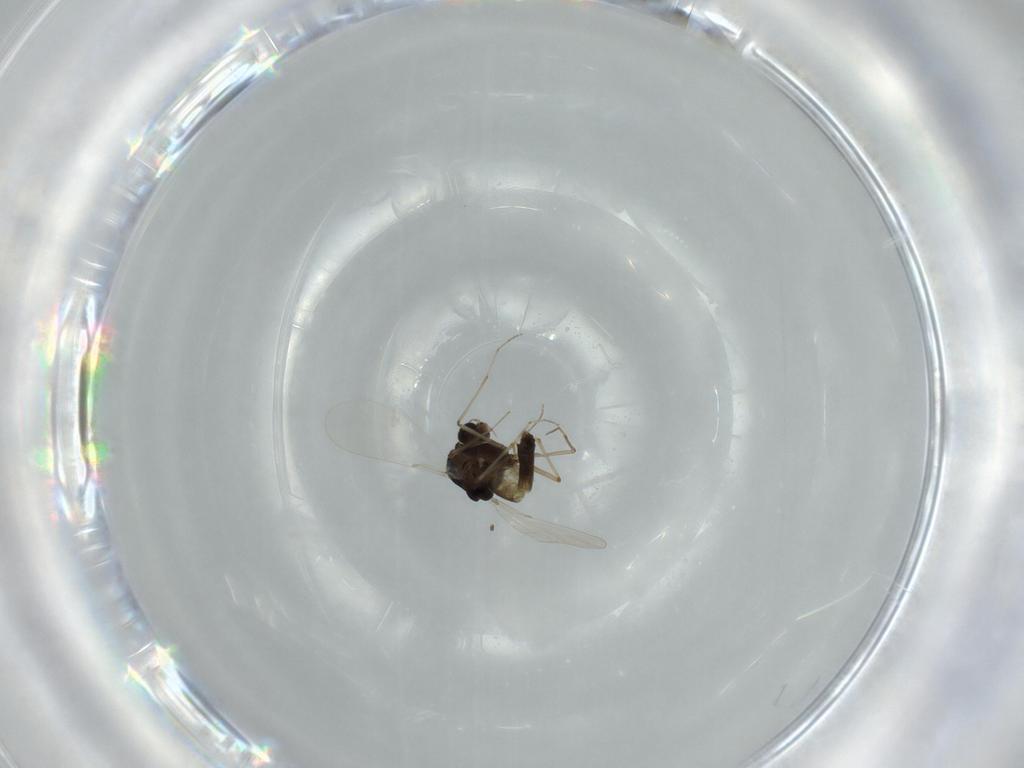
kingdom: Animalia
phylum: Arthropoda
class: Insecta
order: Diptera
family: Chironomidae
